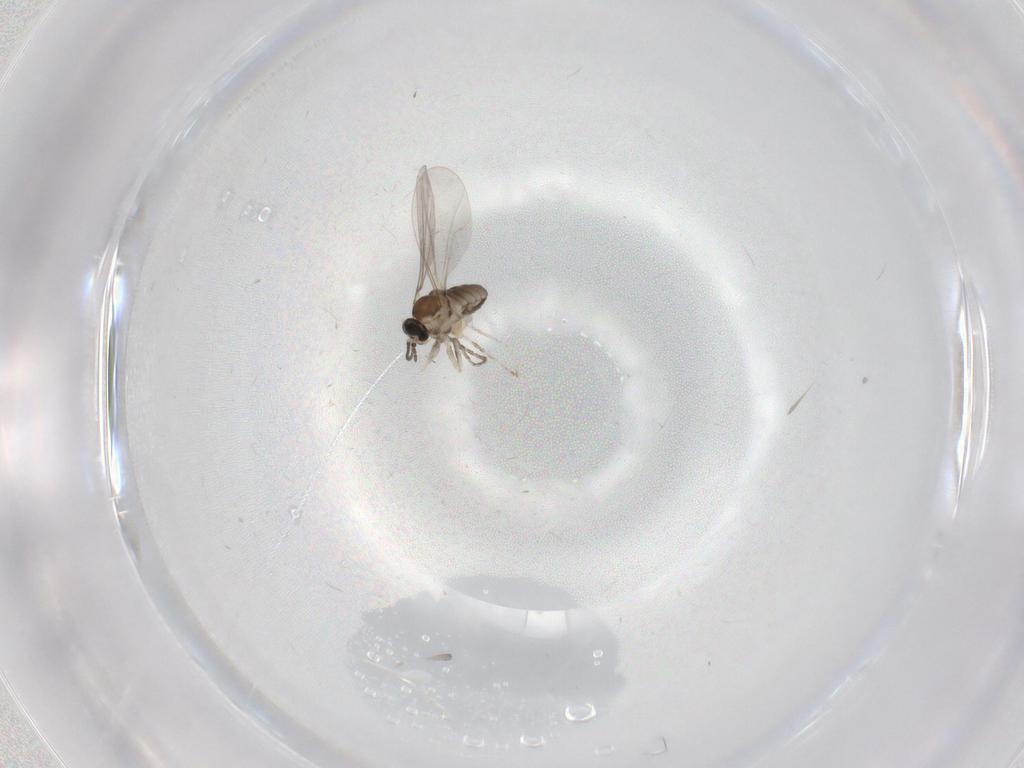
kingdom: Animalia
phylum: Arthropoda
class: Insecta
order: Diptera
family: Cecidomyiidae
